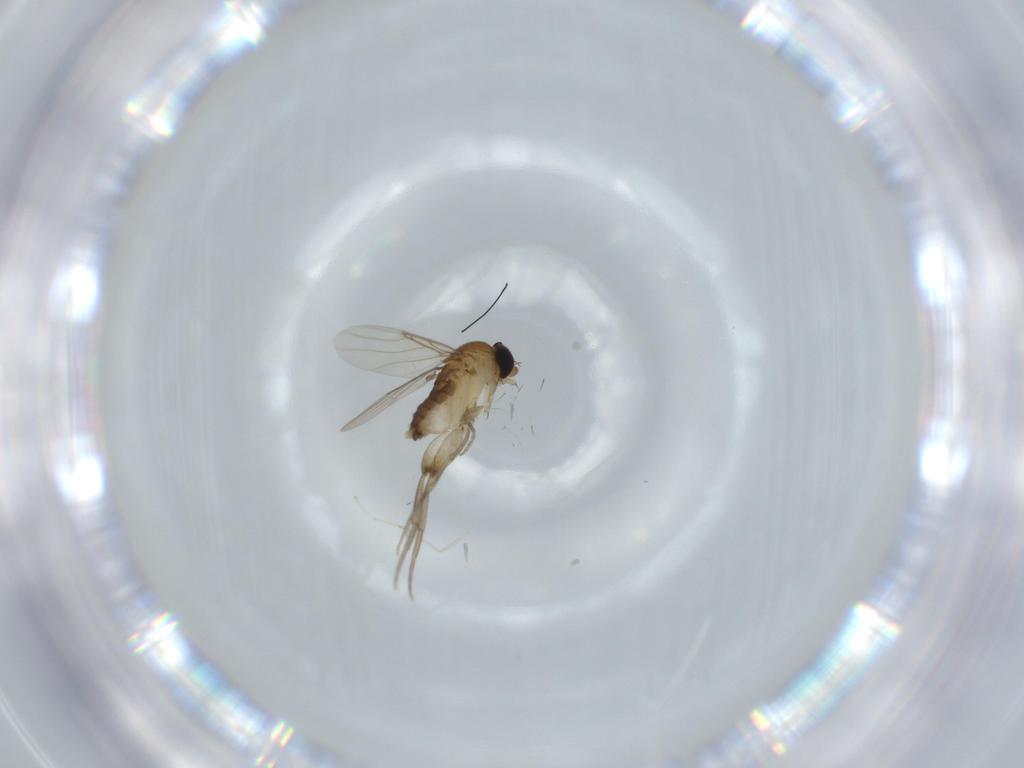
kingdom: Animalia
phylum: Arthropoda
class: Insecta
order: Diptera
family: Phoridae
